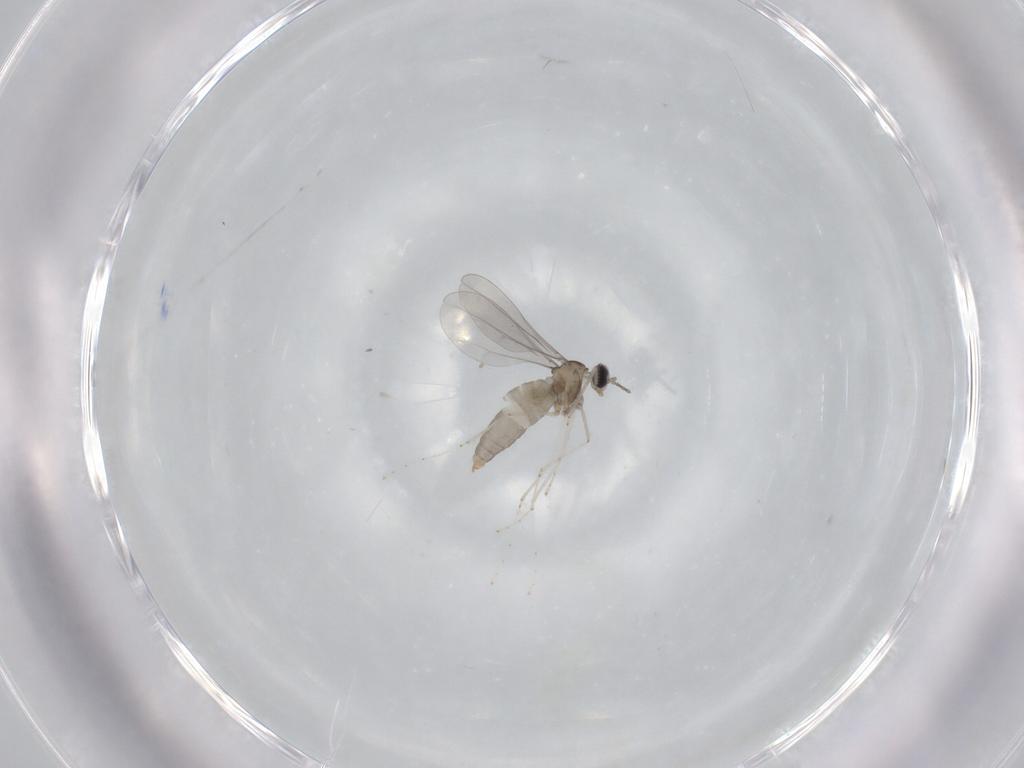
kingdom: Animalia
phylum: Arthropoda
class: Insecta
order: Diptera
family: Cecidomyiidae
